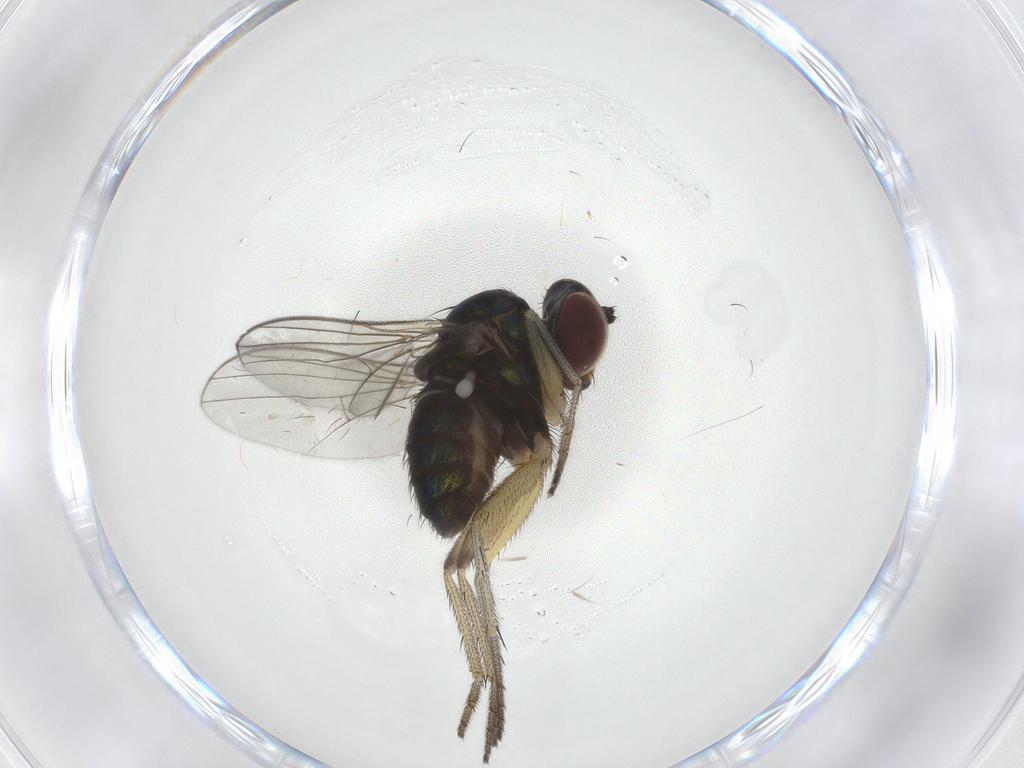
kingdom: Animalia
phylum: Arthropoda
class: Insecta
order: Diptera
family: Dolichopodidae
